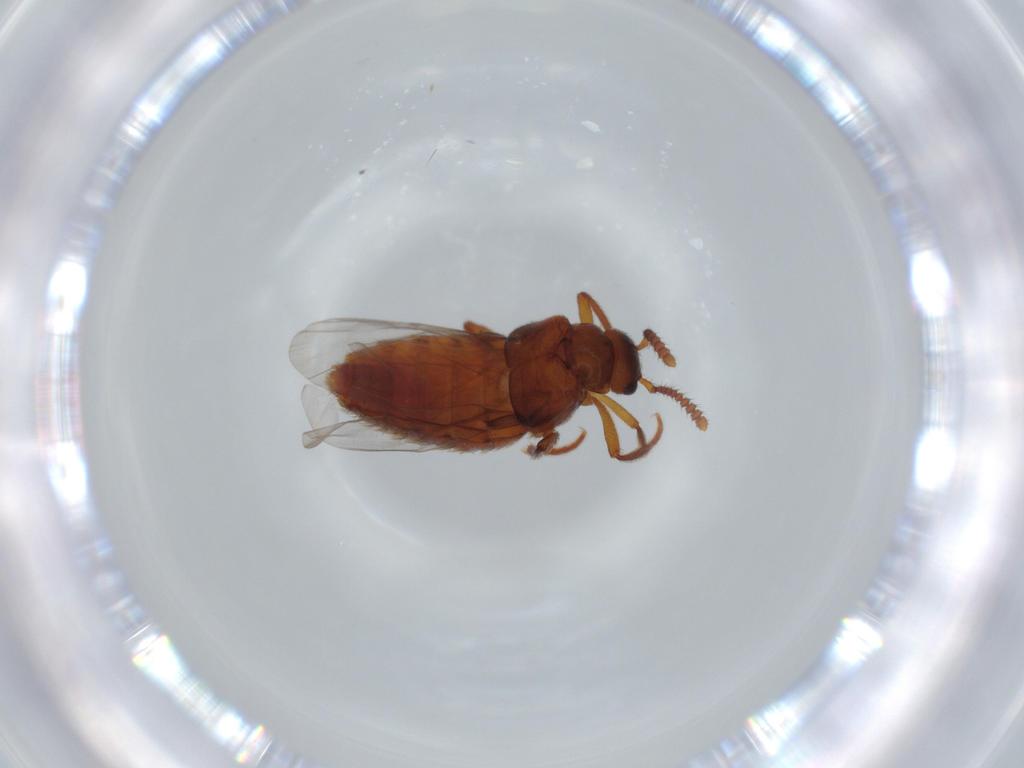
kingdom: Animalia
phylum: Arthropoda
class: Insecta
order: Coleoptera
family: Staphylinidae
